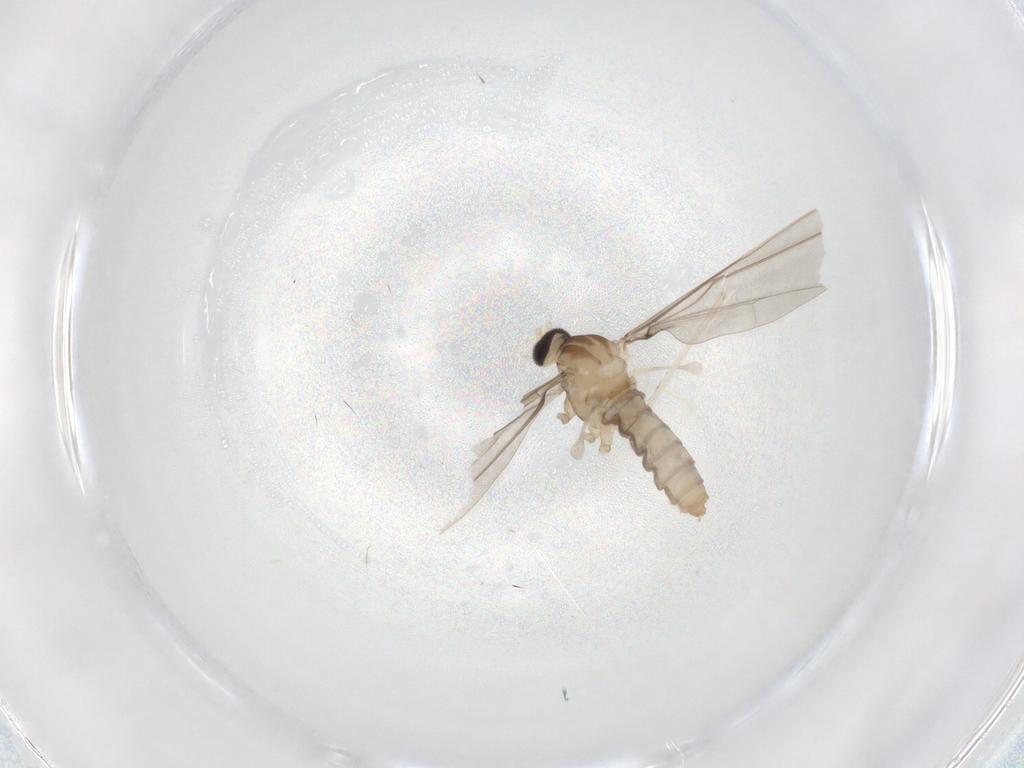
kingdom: Animalia
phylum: Arthropoda
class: Insecta
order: Diptera
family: Cecidomyiidae
